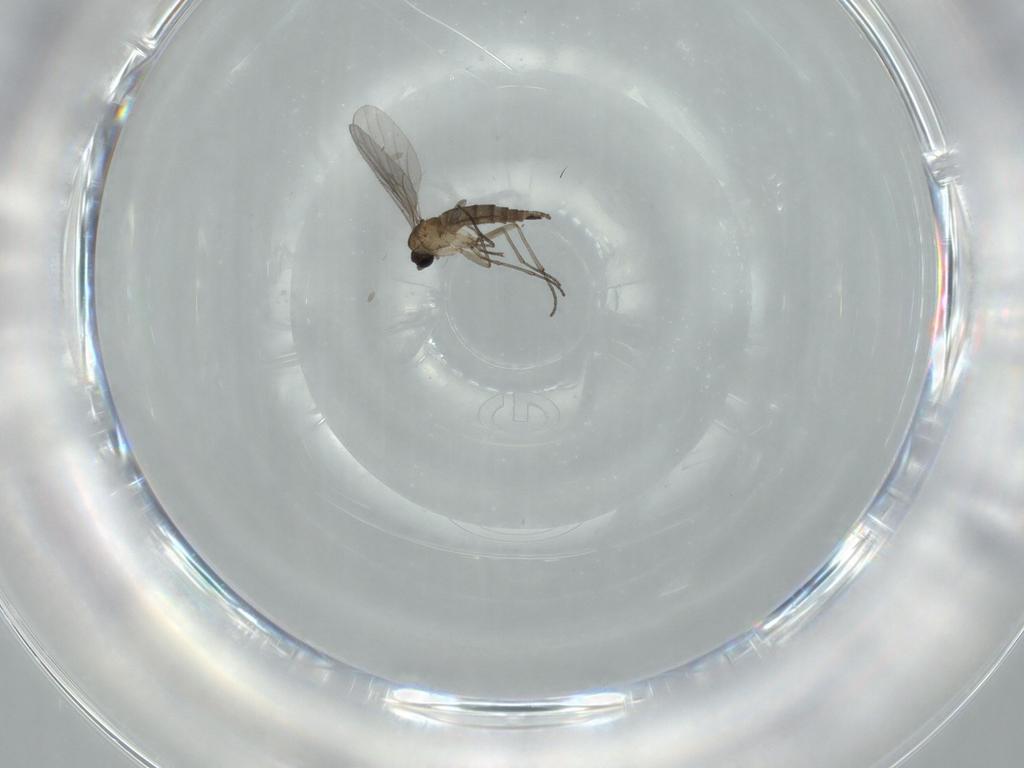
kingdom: Animalia
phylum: Arthropoda
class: Insecta
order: Diptera
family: Sciaridae
